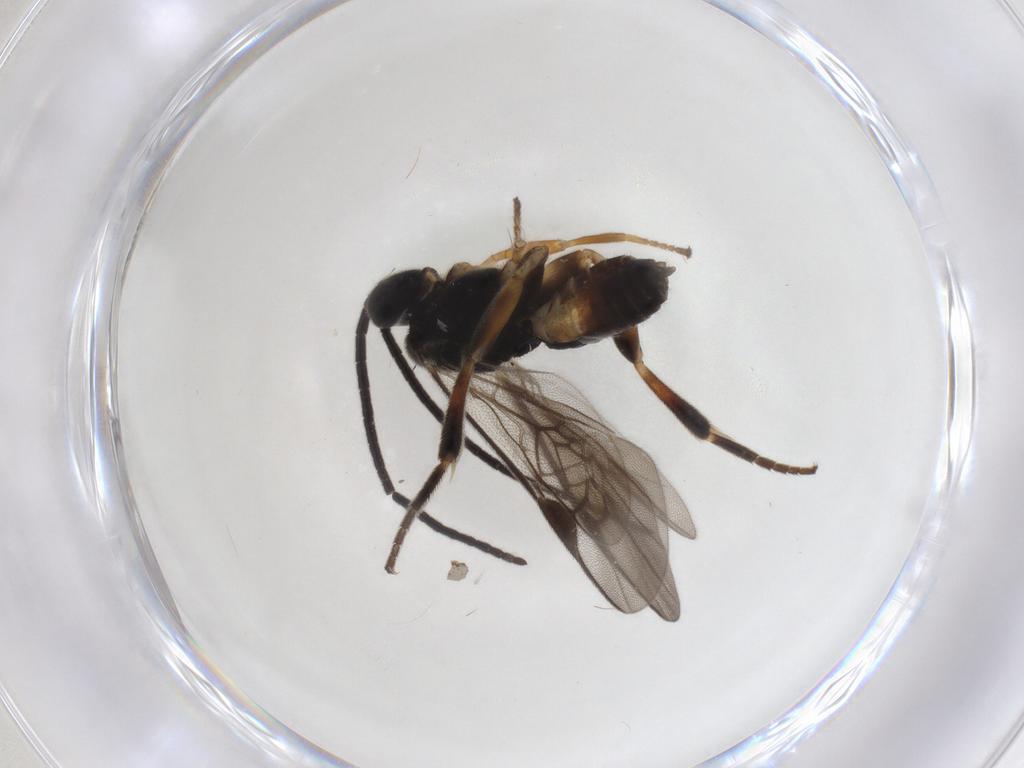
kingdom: Animalia
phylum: Arthropoda
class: Insecta
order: Hymenoptera
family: Braconidae
